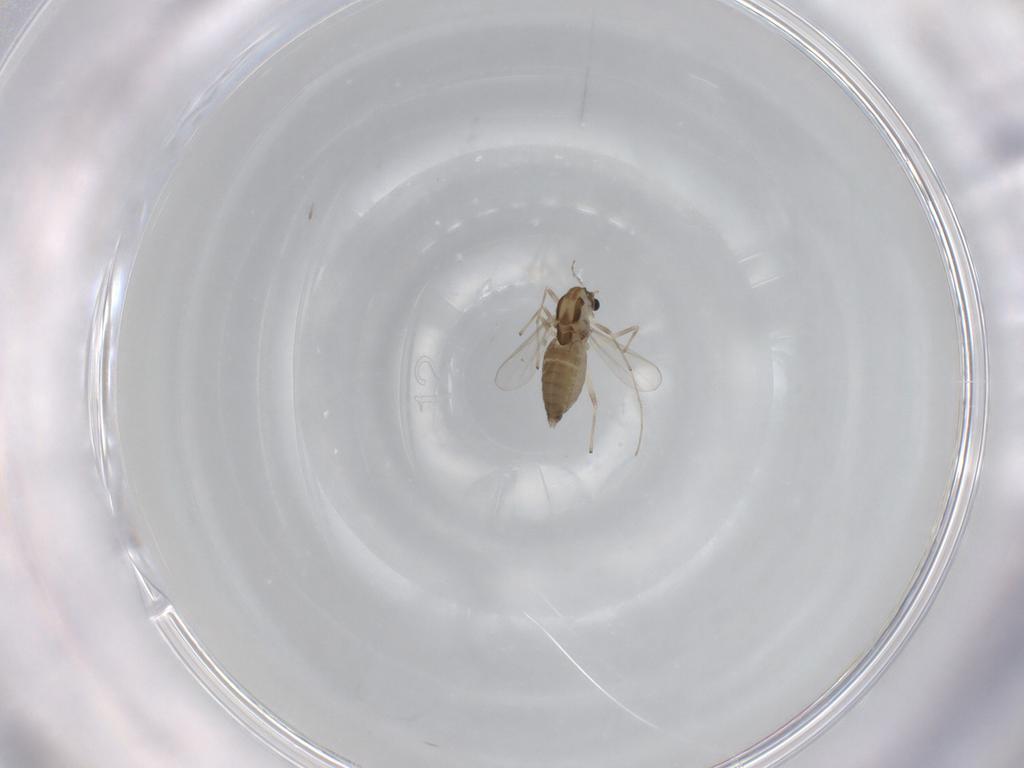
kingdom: Animalia
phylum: Arthropoda
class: Insecta
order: Diptera
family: Chironomidae
